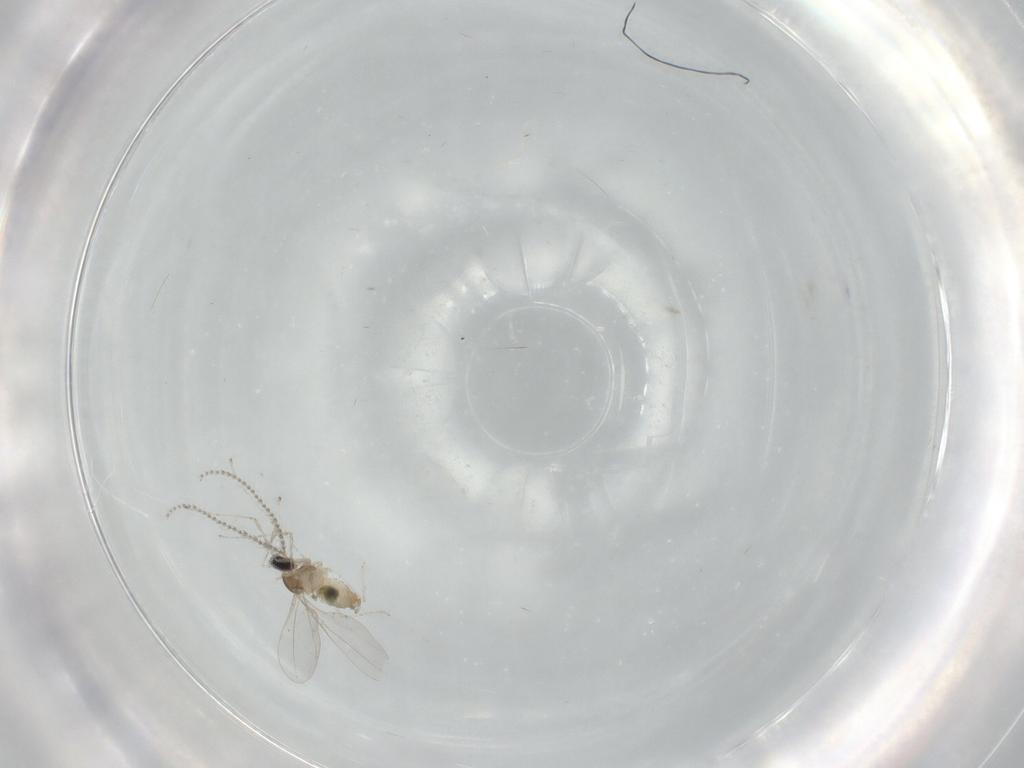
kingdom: Animalia
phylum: Arthropoda
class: Insecta
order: Diptera
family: Cecidomyiidae
